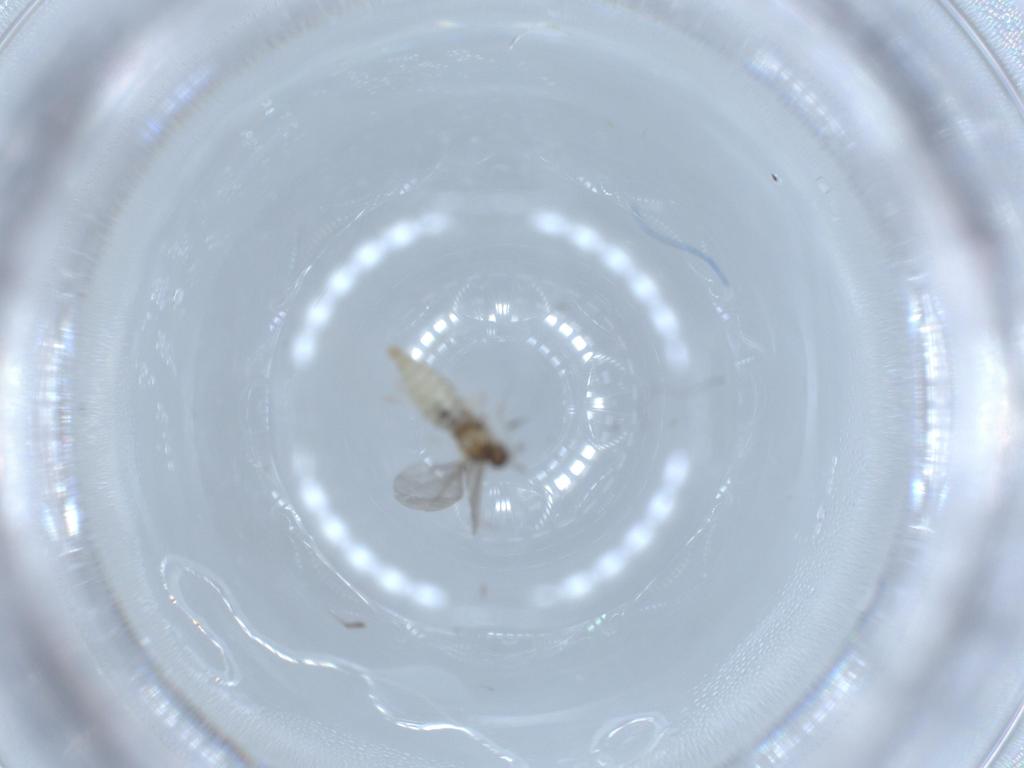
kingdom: Animalia
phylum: Arthropoda
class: Insecta
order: Diptera
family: Cecidomyiidae
